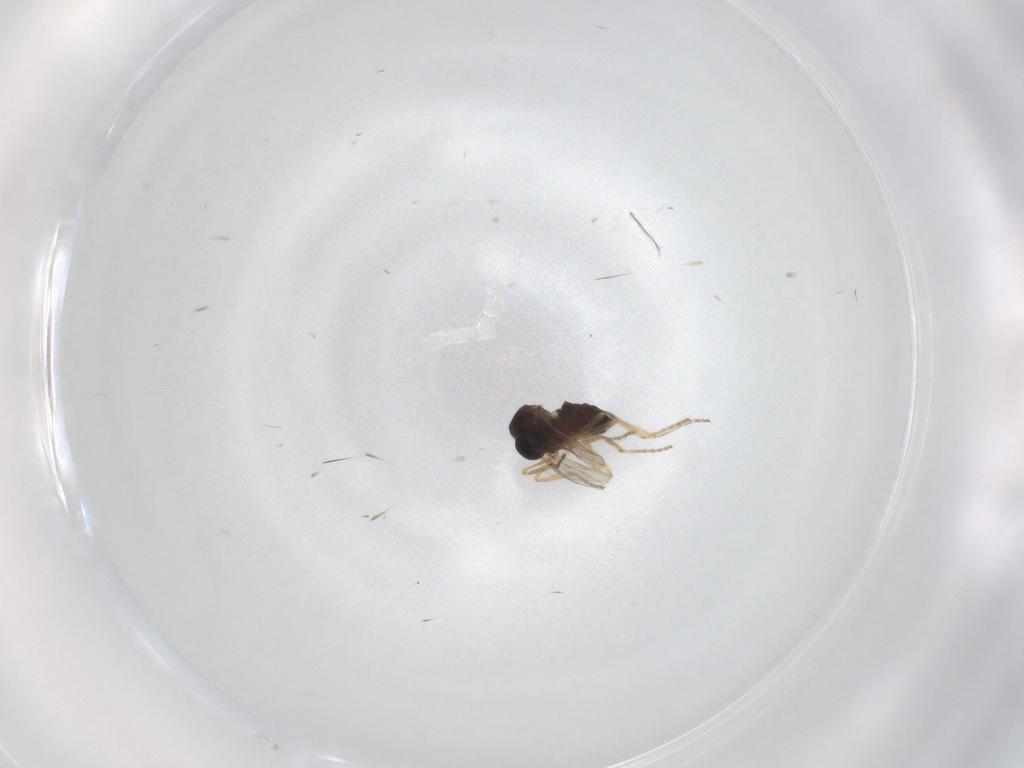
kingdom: Animalia
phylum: Arthropoda
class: Insecta
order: Diptera
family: Ceratopogonidae
